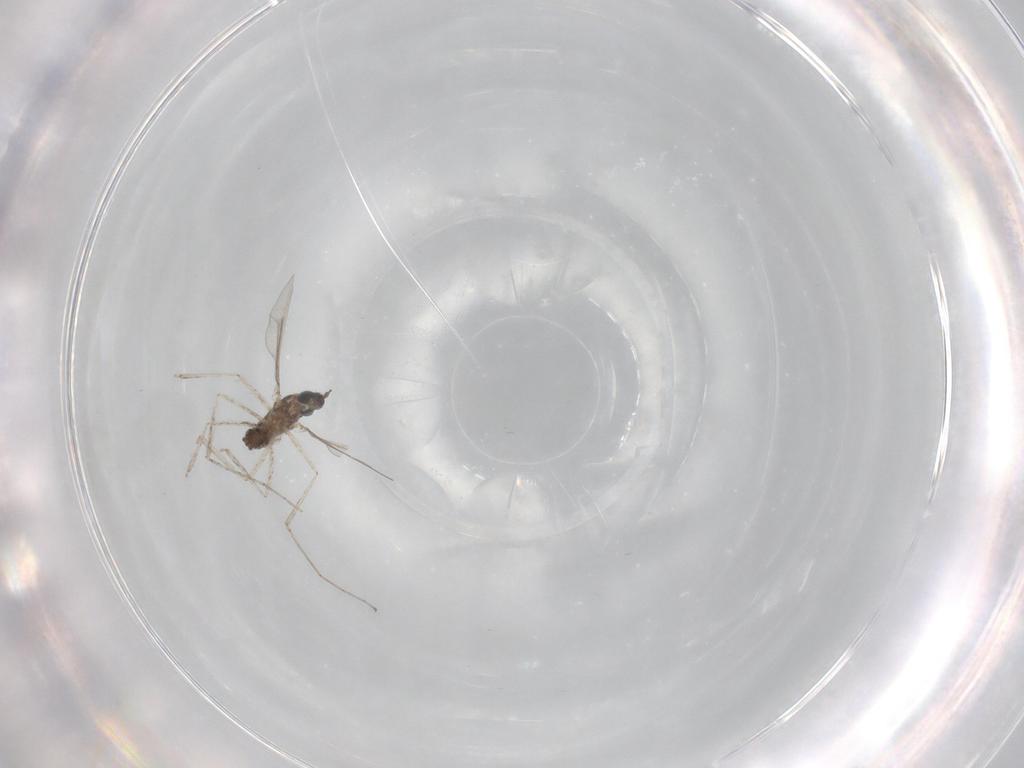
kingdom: Animalia
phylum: Arthropoda
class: Insecta
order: Diptera
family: Cecidomyiidae
